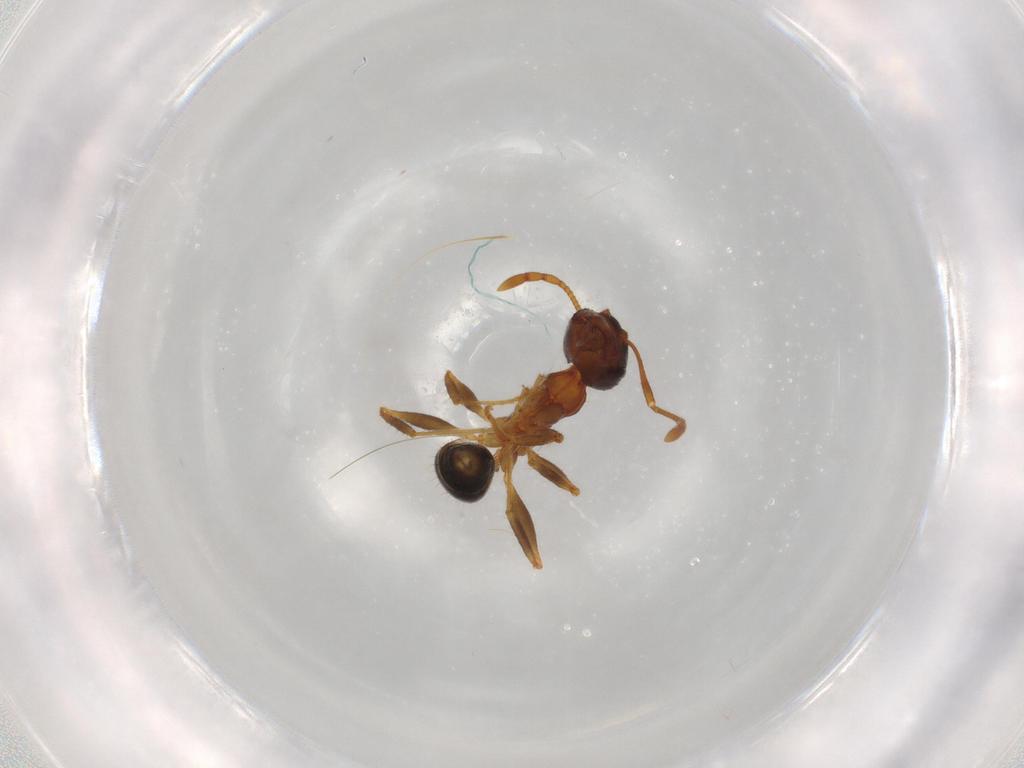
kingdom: Animalia
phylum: Arthropoda
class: Insecta
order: Hymenoptera
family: Formicidae
